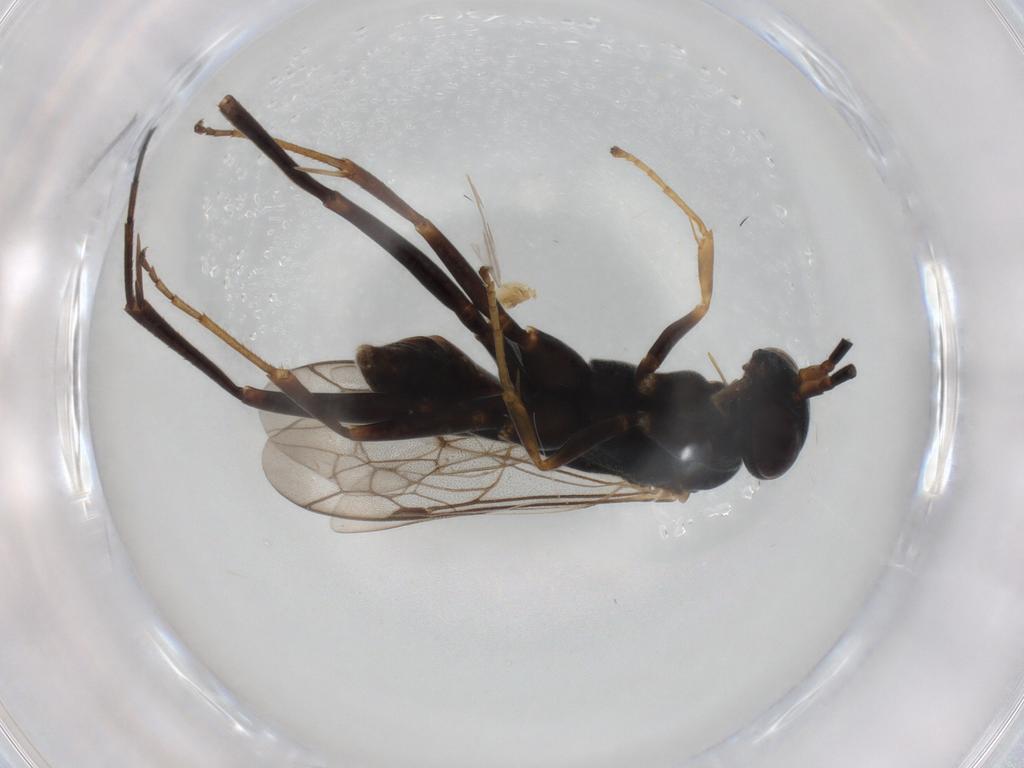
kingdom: Animalia
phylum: Arthropoda
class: Insecta
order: Hymenoptera
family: Pompilidae
